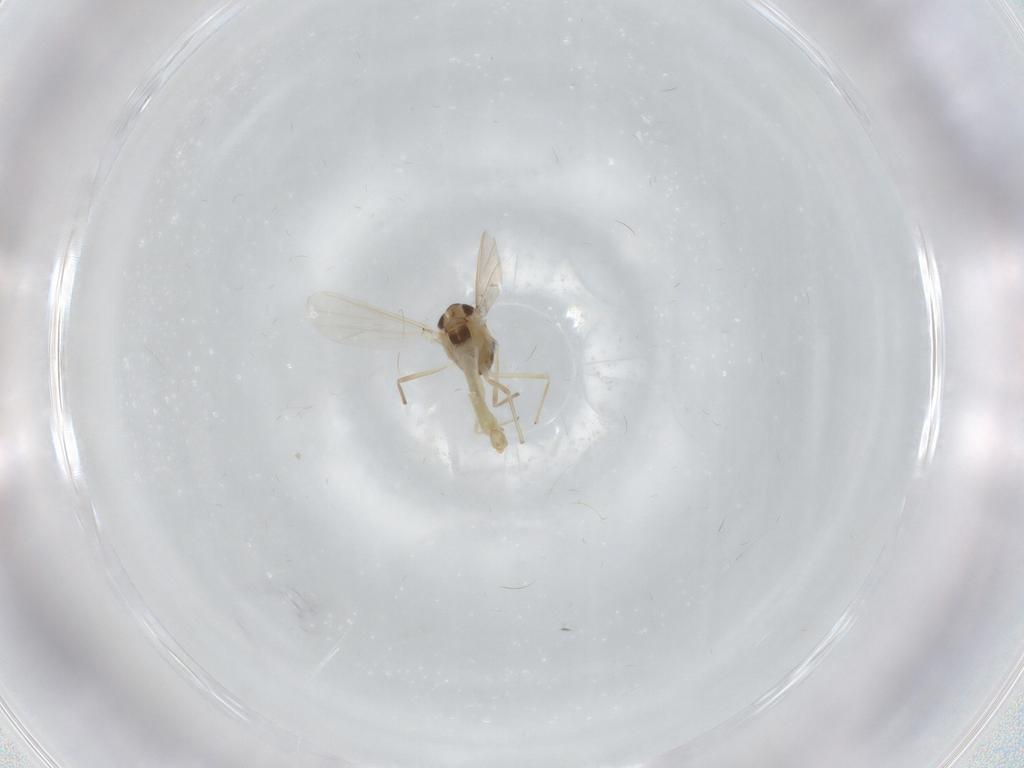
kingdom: Animalia
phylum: Arthropoda
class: Insecta
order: Diptera
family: Chironomidae
